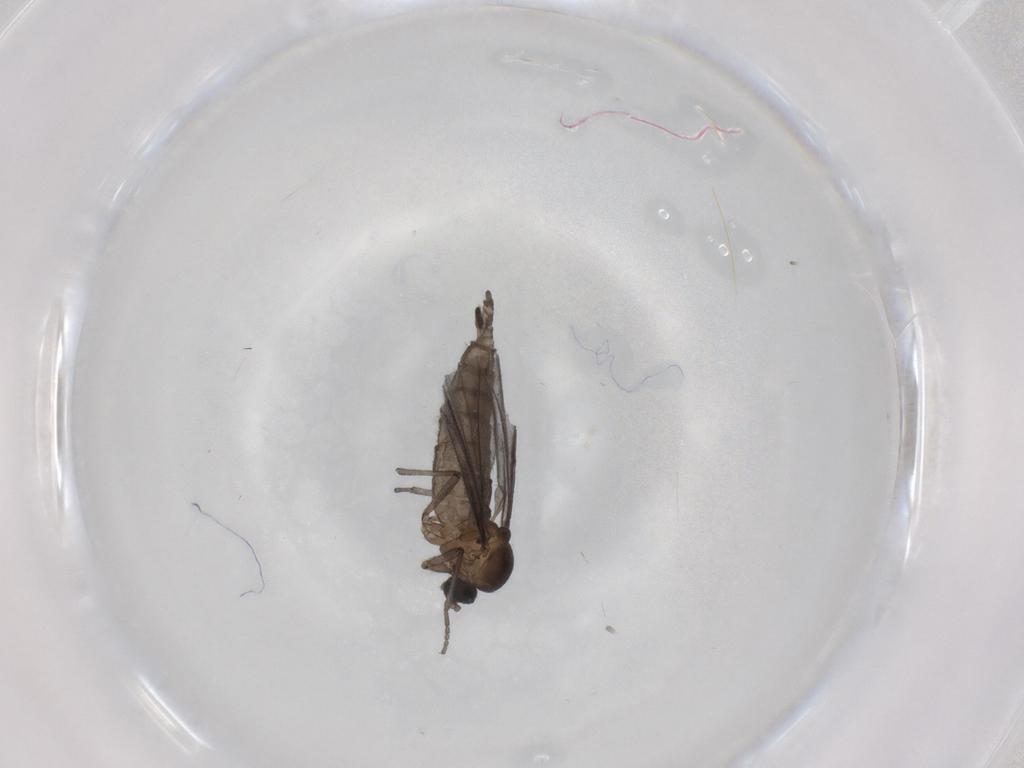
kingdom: Animalia
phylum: Arthropoda
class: Insecta
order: Diptera
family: Sciaridae
